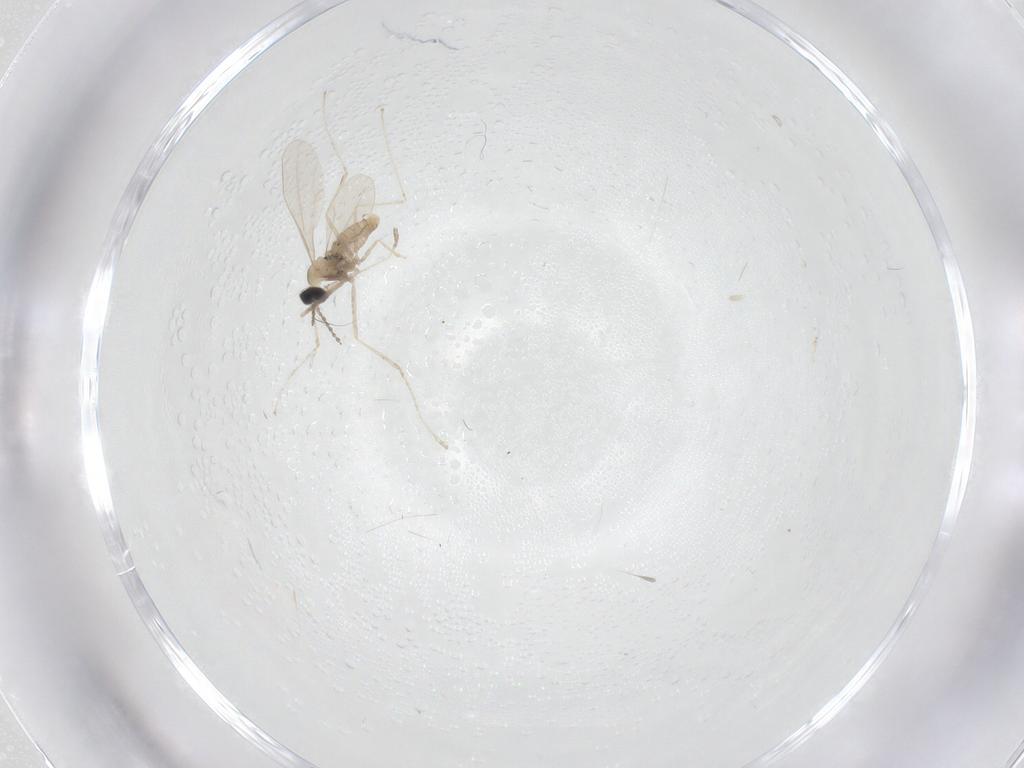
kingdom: Animalia
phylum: Arthropoda
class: Insecta
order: Diptera
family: Ceratopogonidae
